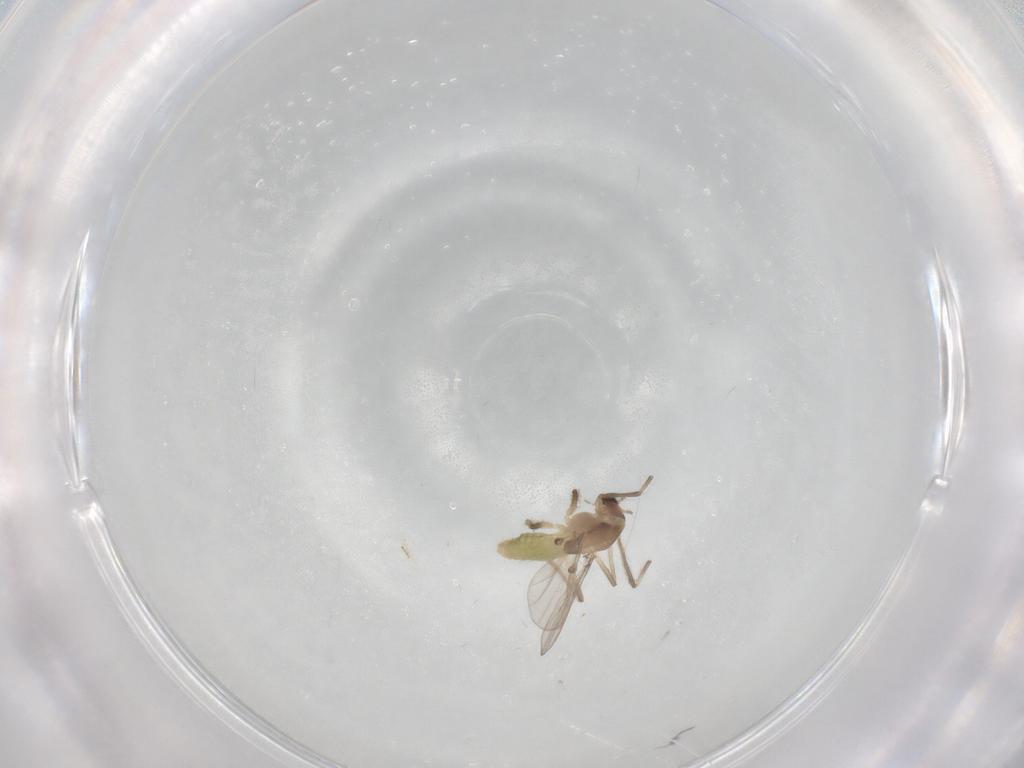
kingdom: Animalia
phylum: Arthropoda
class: Insecta
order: Diptera
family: Chironomidae
